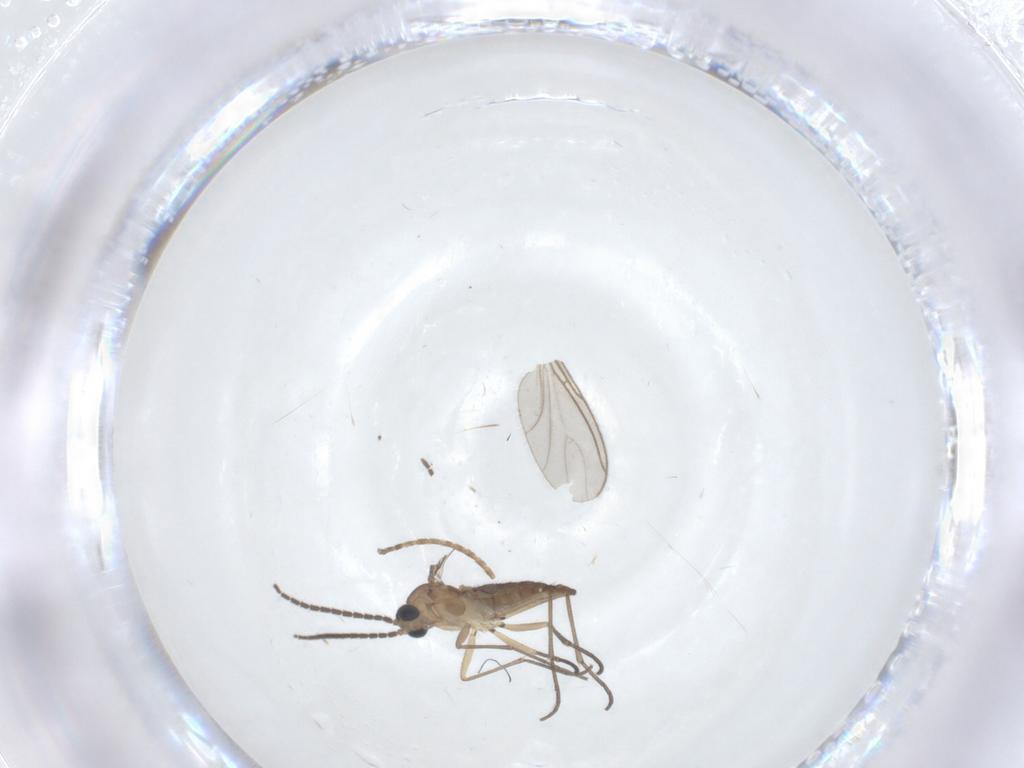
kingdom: Animalia
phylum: Arthropoda
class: Insecta
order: Diptera
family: Sciaridae
